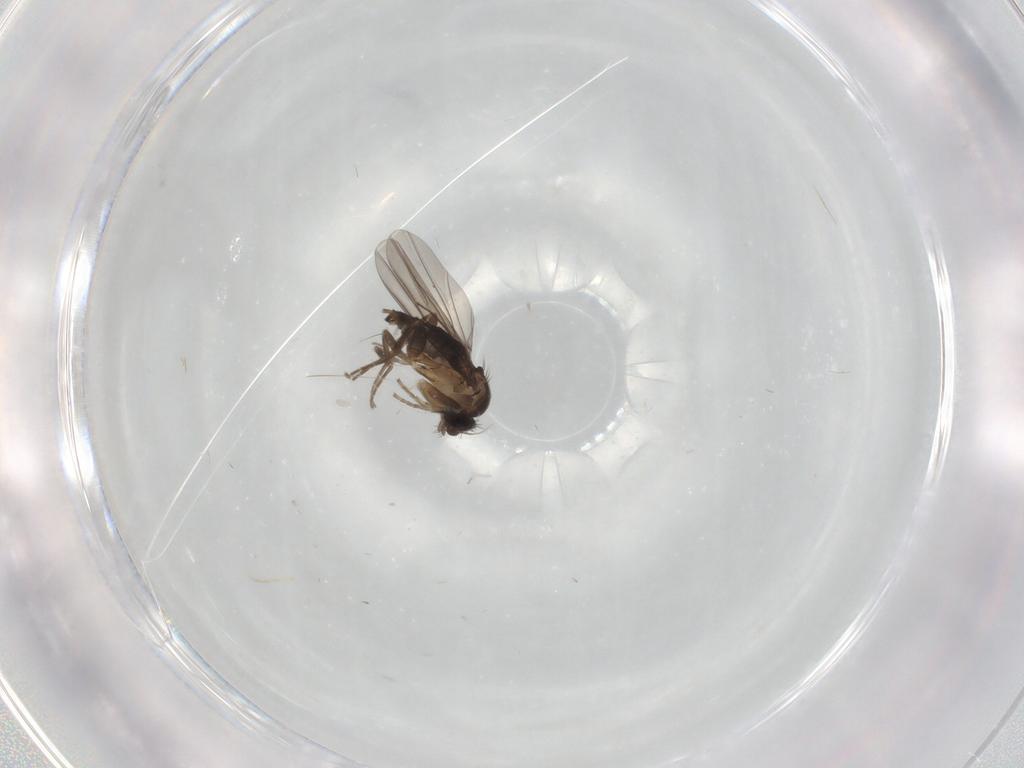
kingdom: Animalia
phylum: Arthropoda
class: Insecta
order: Diptera
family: Chironomidae
